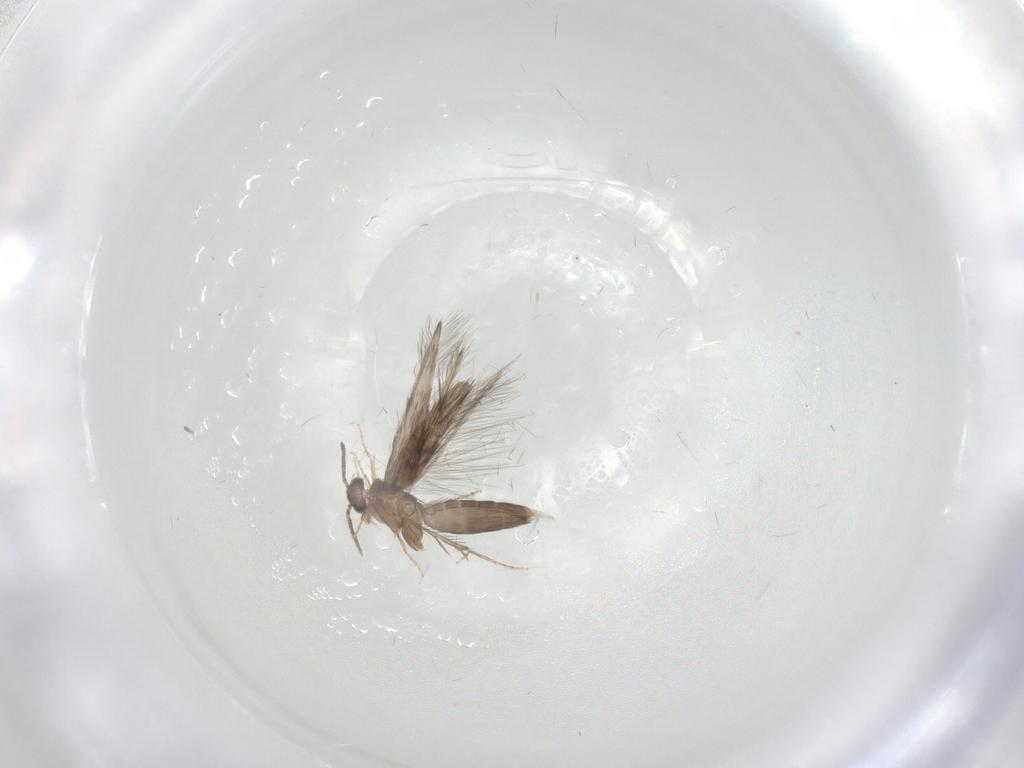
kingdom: Animalia
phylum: Arthropoda
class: Insecta
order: Trichoptera
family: Hydroptilidae
